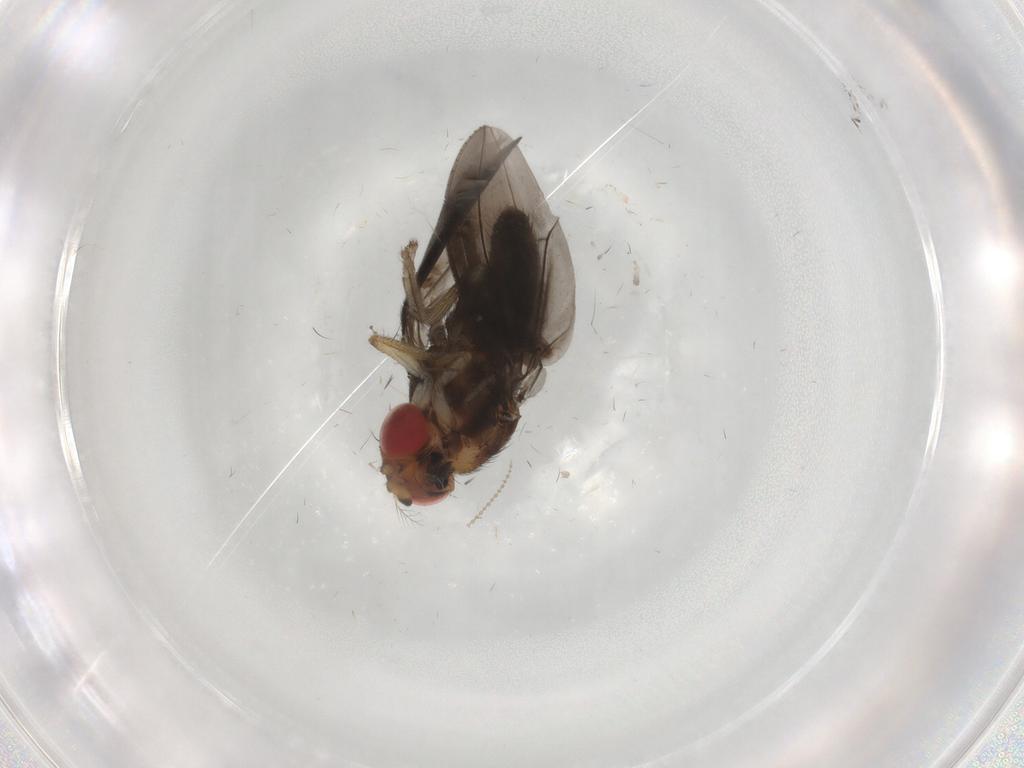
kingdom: Animalia
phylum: Arthropoda
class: Insecta
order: Diptera
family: Drosophilidae
